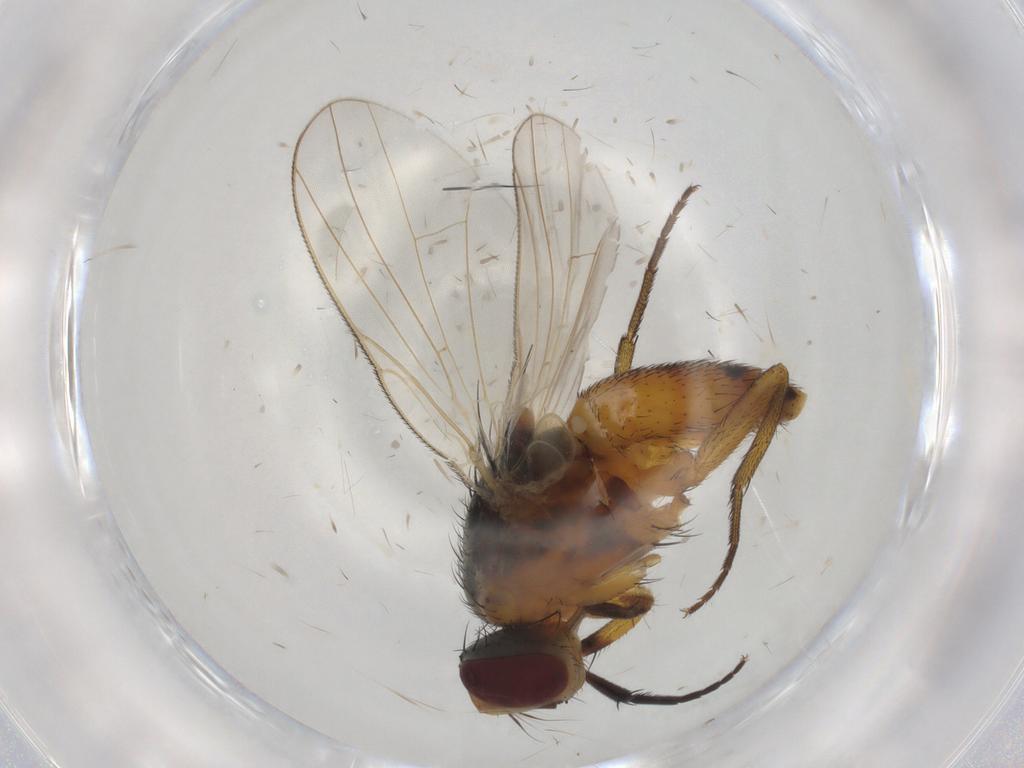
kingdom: Animalia
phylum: Arthropoda
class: Insecta
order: Diptera
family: Muscidae
